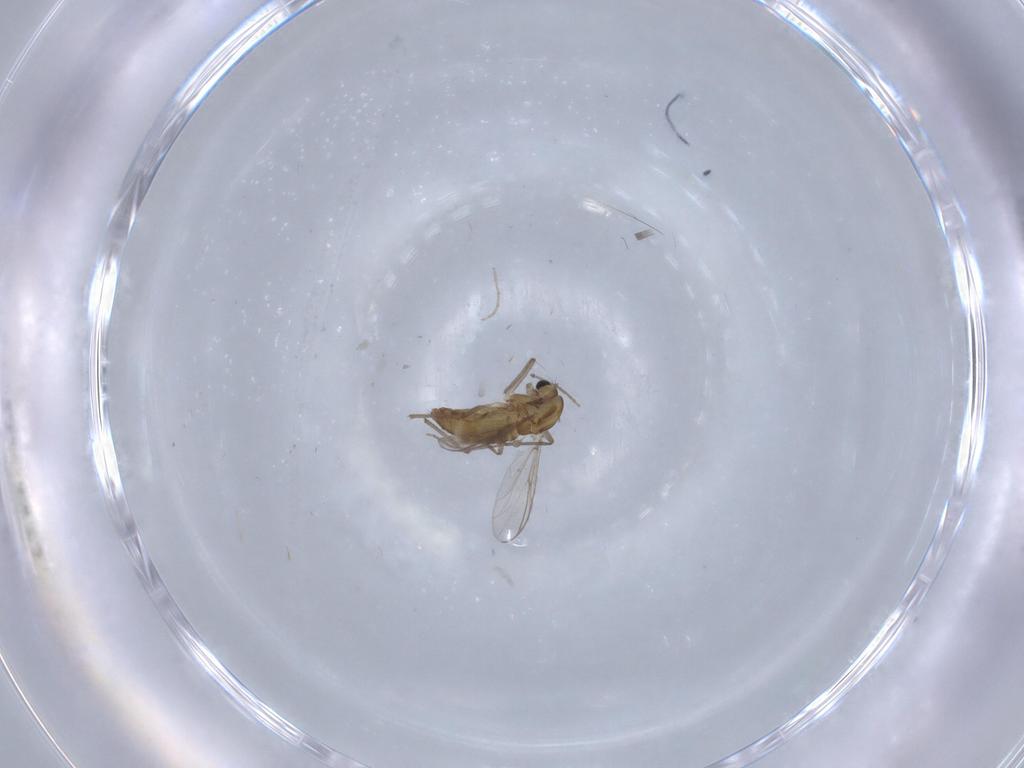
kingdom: Animalia
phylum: Arthropoda
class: Insecta
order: Diptera
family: Chironomidae
